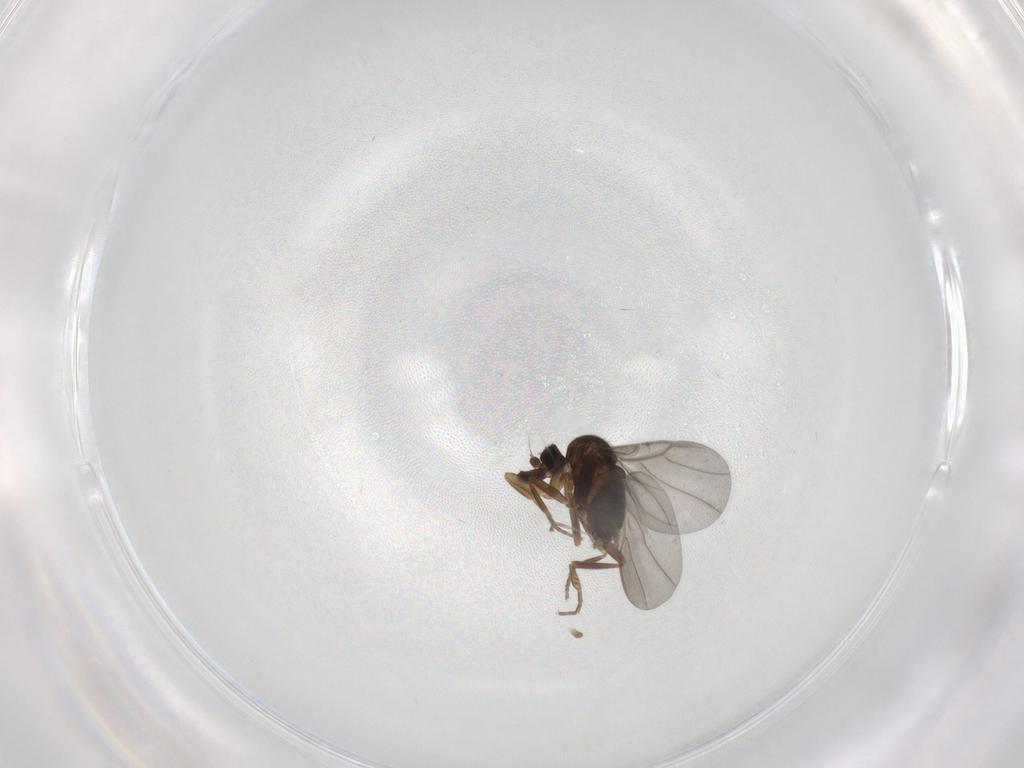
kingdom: Animalia
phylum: Arthropoda
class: Insecta
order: Diptera
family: Phoridae
